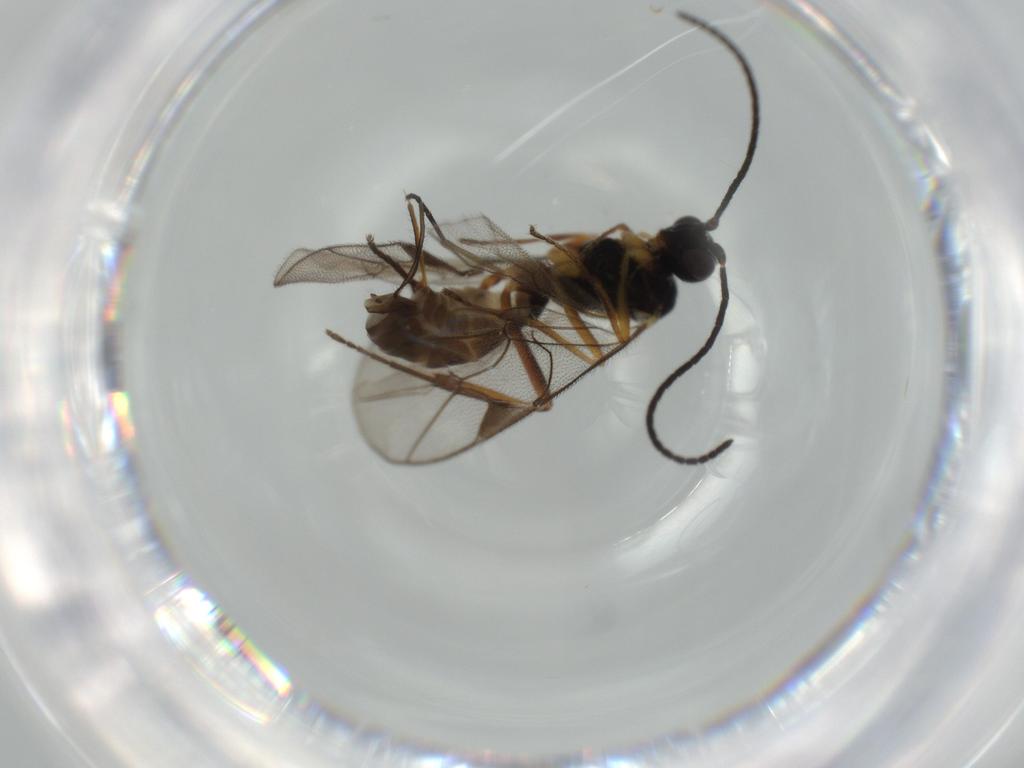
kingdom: Animalia
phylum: Arthropoda
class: Insecta
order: Hymenoptera
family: Ichneumonidae
